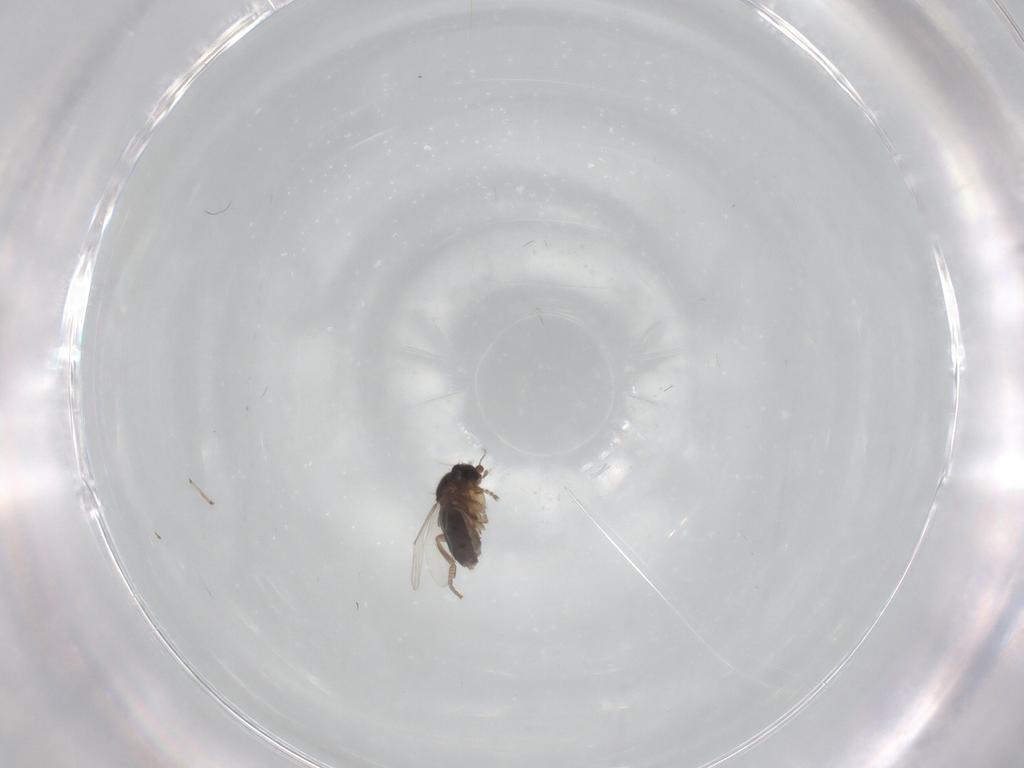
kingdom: Animalia
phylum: Arthropoda
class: Insecta
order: Diptera
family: Phoridae
